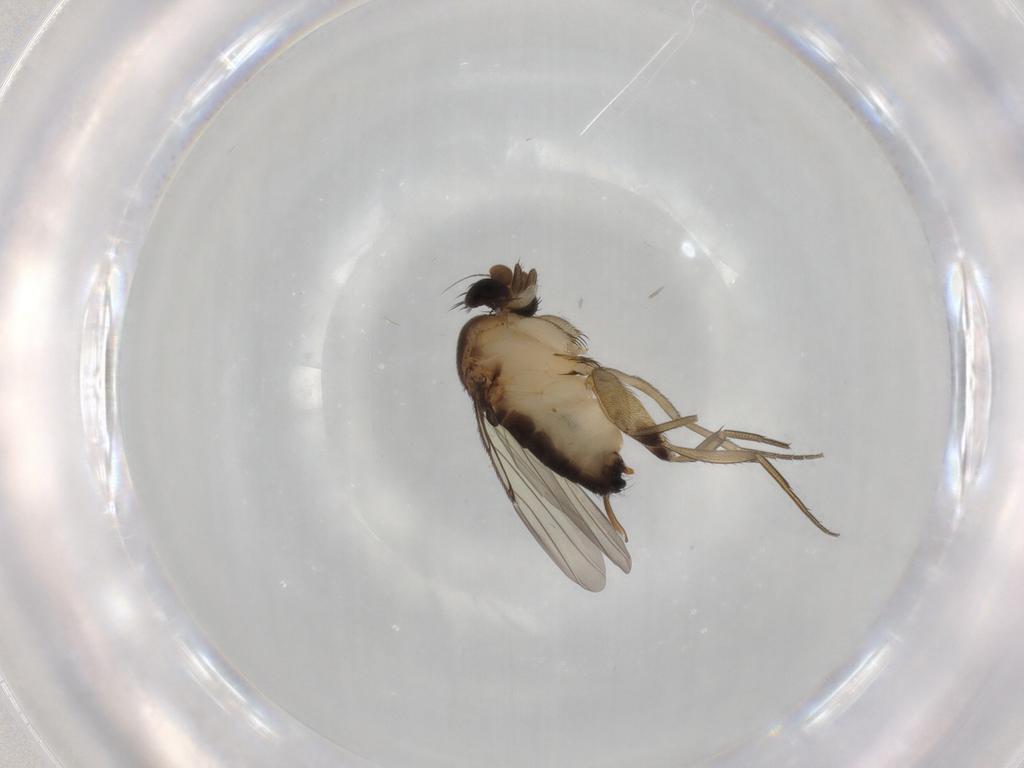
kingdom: Animalia
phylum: Arthropoda
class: Insecta
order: Diptera
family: Phoridae
